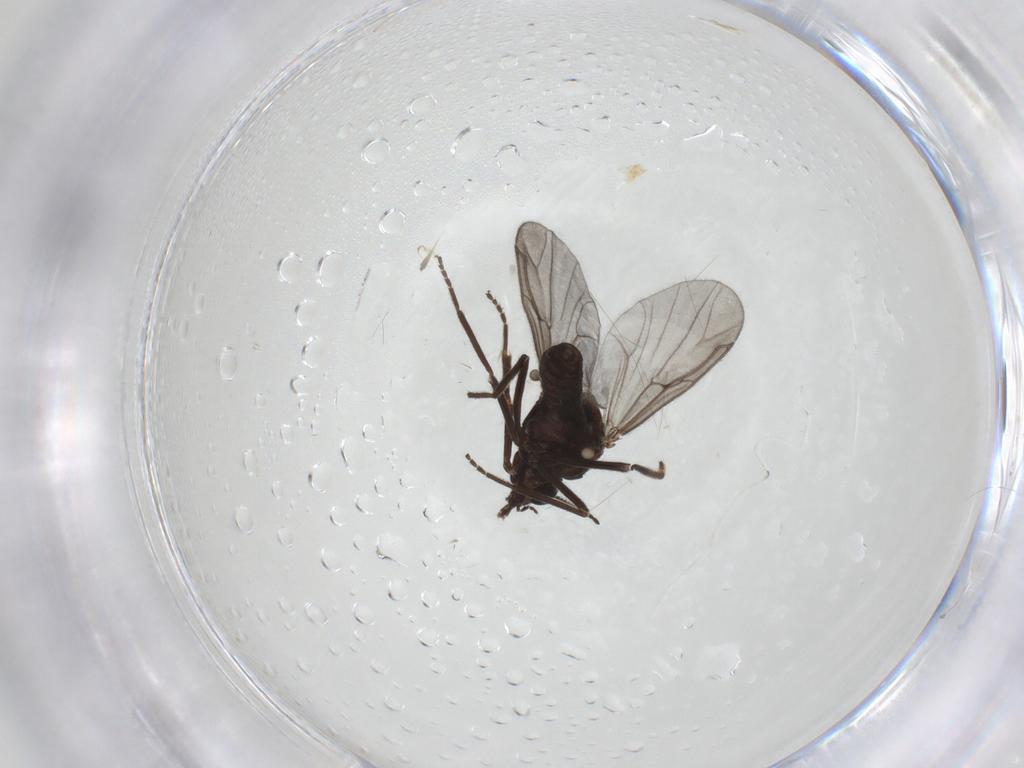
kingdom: Animalia
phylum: Arthropoda
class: Insecta
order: Diptera
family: Ceratopogonidae
